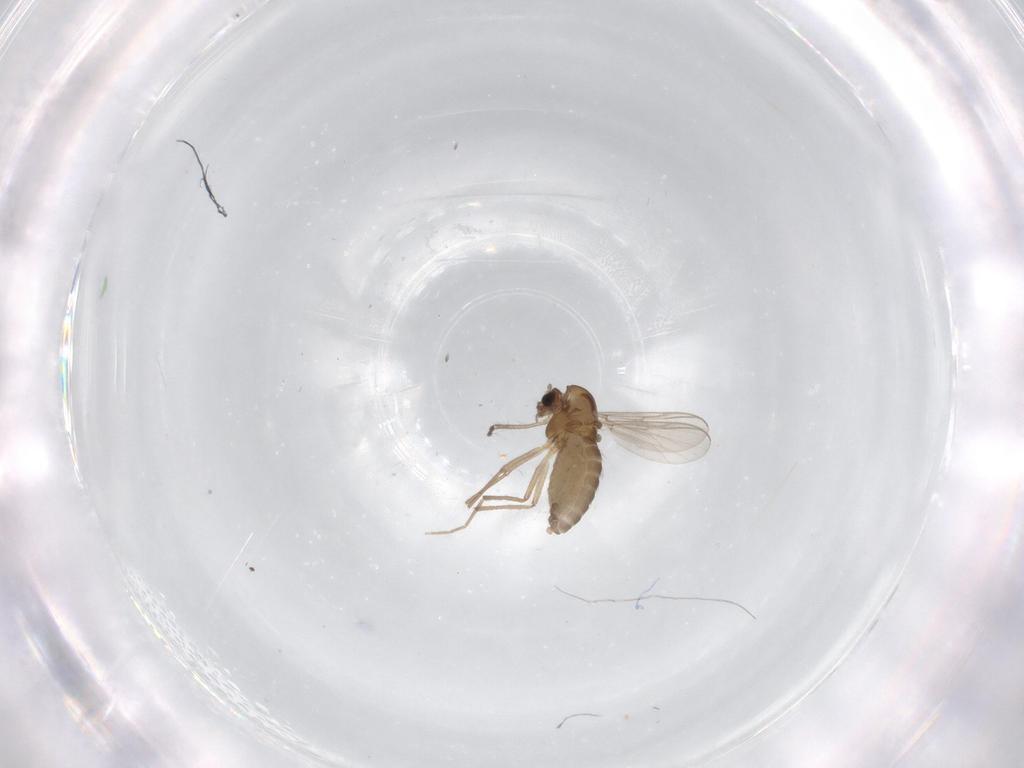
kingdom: Animalia
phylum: Arthropoda
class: Insecta
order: Diptera
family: Chironomidae
